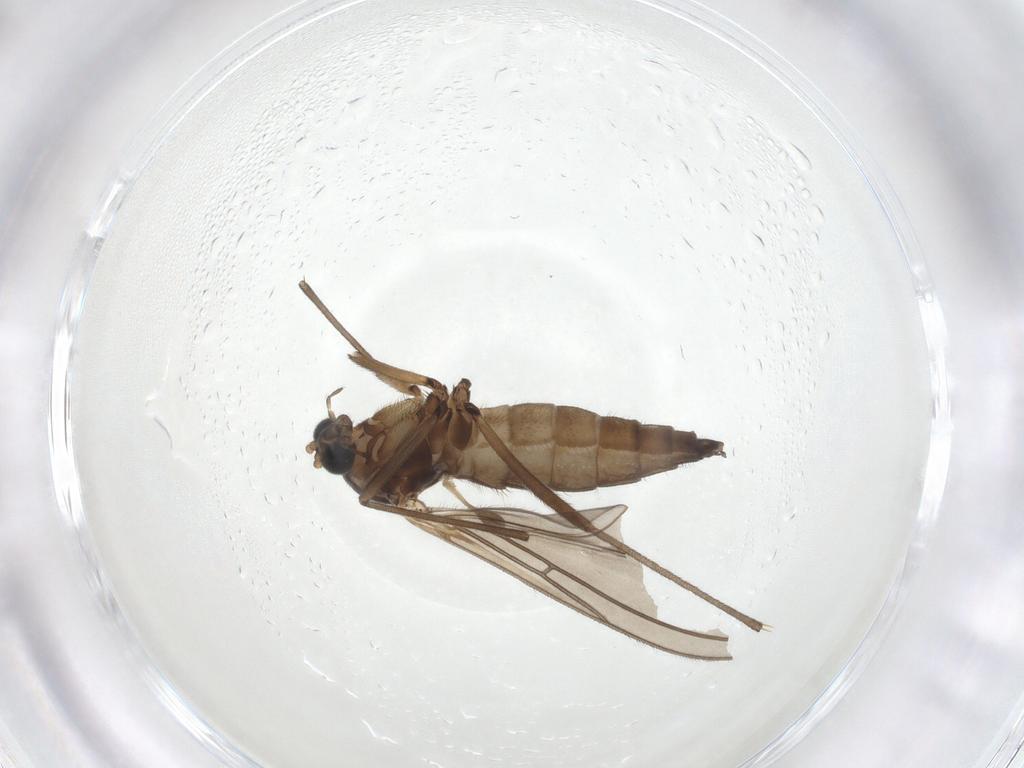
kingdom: Animalia
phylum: Arthropoda
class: Insecta
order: Diptera
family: Sciaridae
